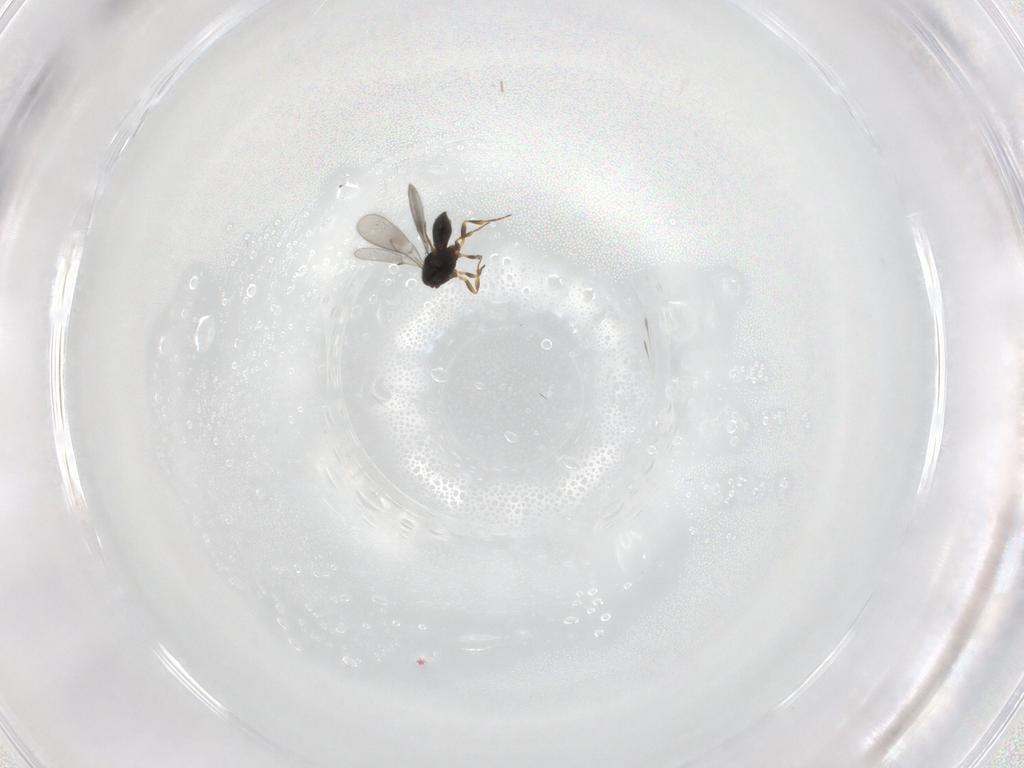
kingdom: Animalia
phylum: Arthropoda
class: Insecta
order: Hymenoptera
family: Scelionidae
